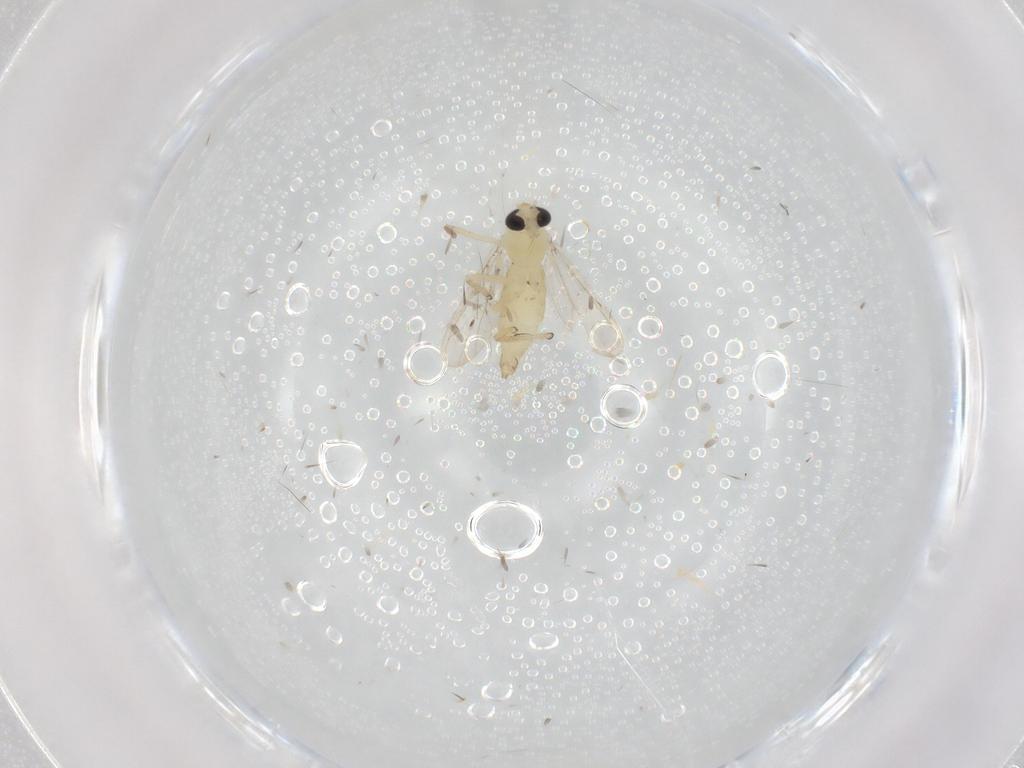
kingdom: Animalia
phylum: Arthropoda
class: Insecta
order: Diptera
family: Chironomidae
